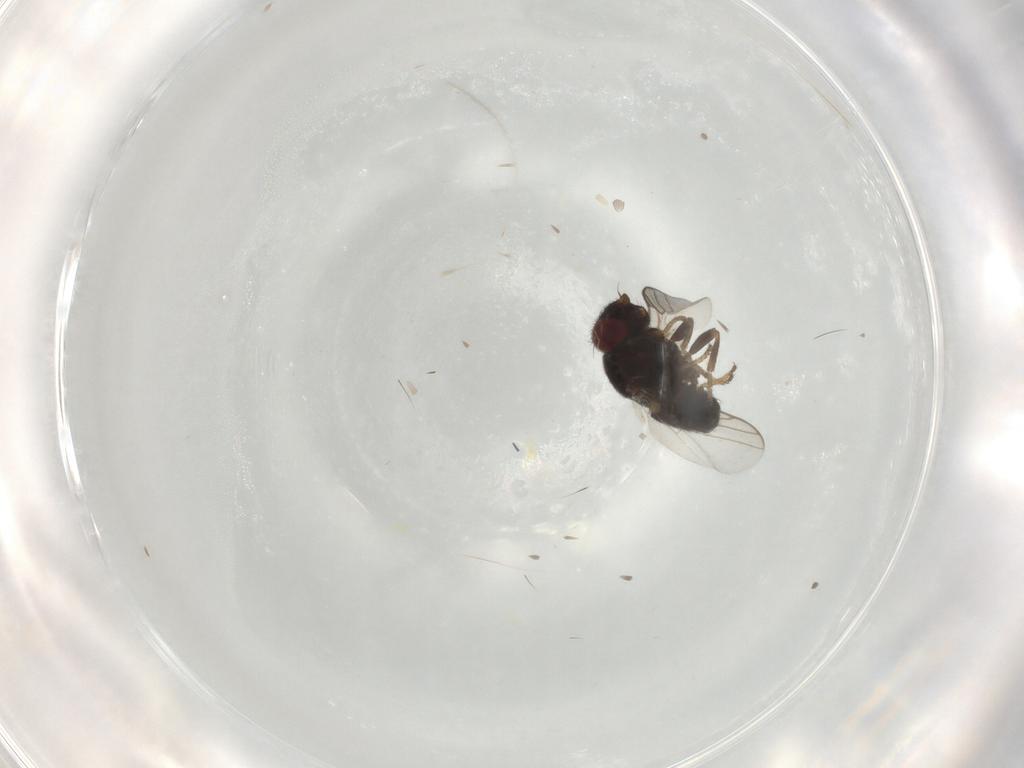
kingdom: Animalia
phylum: Arthropoda
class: Insecta
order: Diptera
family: Chloropidae
